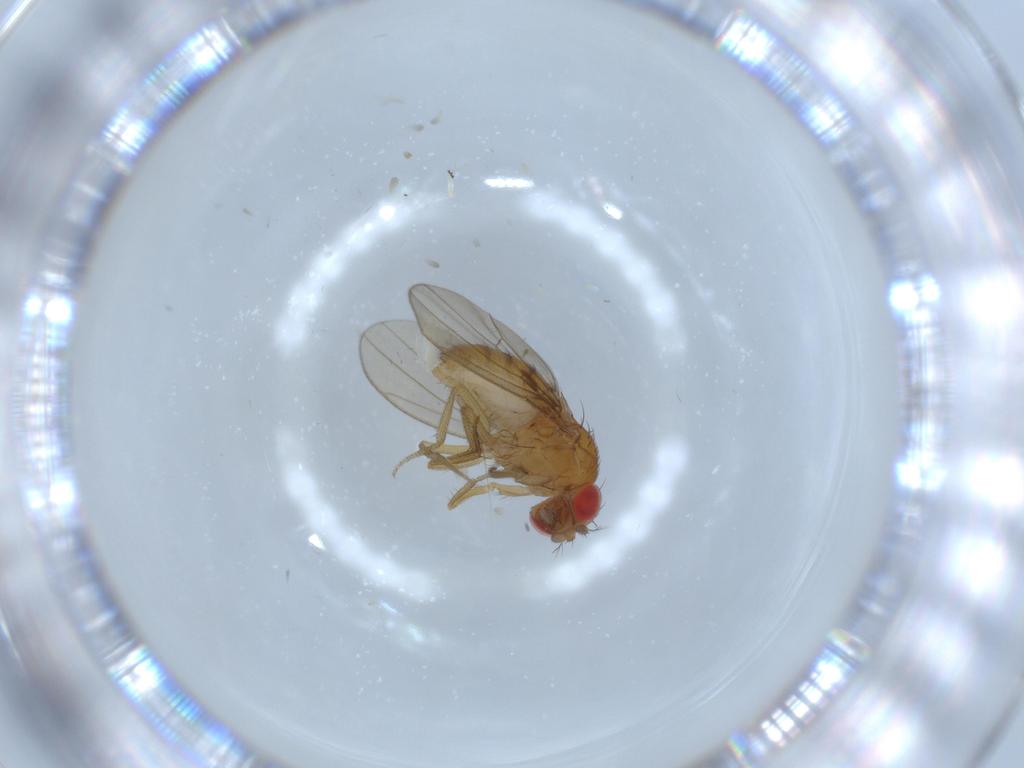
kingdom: Animalia
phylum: Arthropoda
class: Insecta
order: Diptera
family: Drosophilidae
